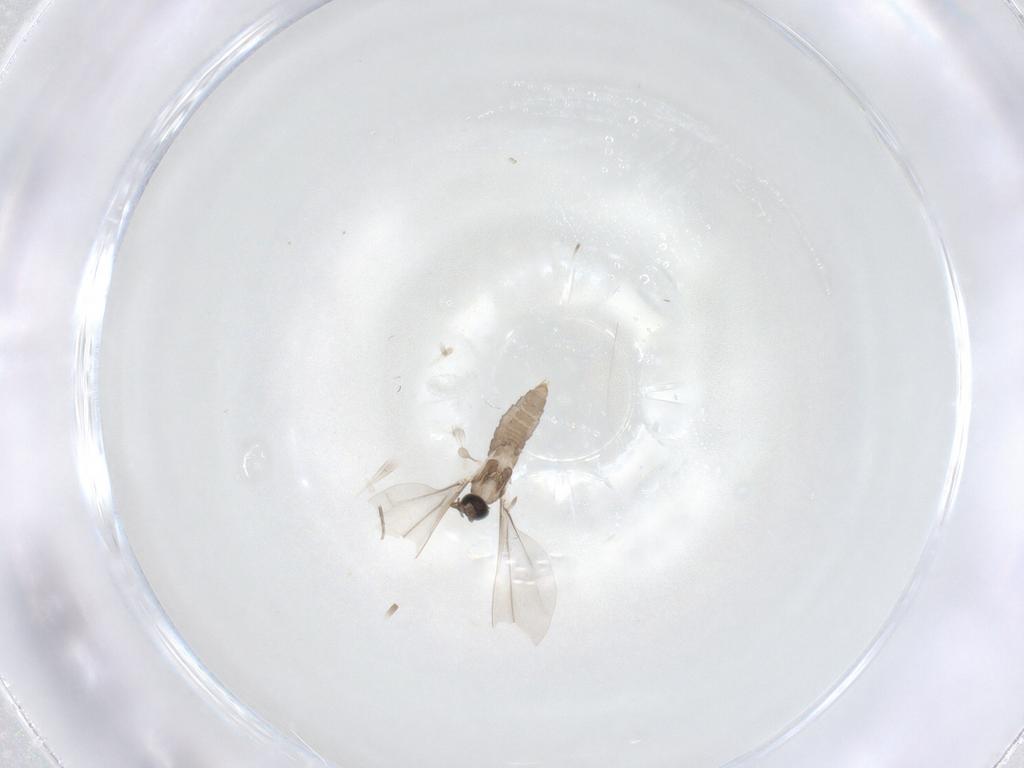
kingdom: Animalia
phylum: Arthropoda
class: Insecta
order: Diptera
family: Cecidomyiidae
